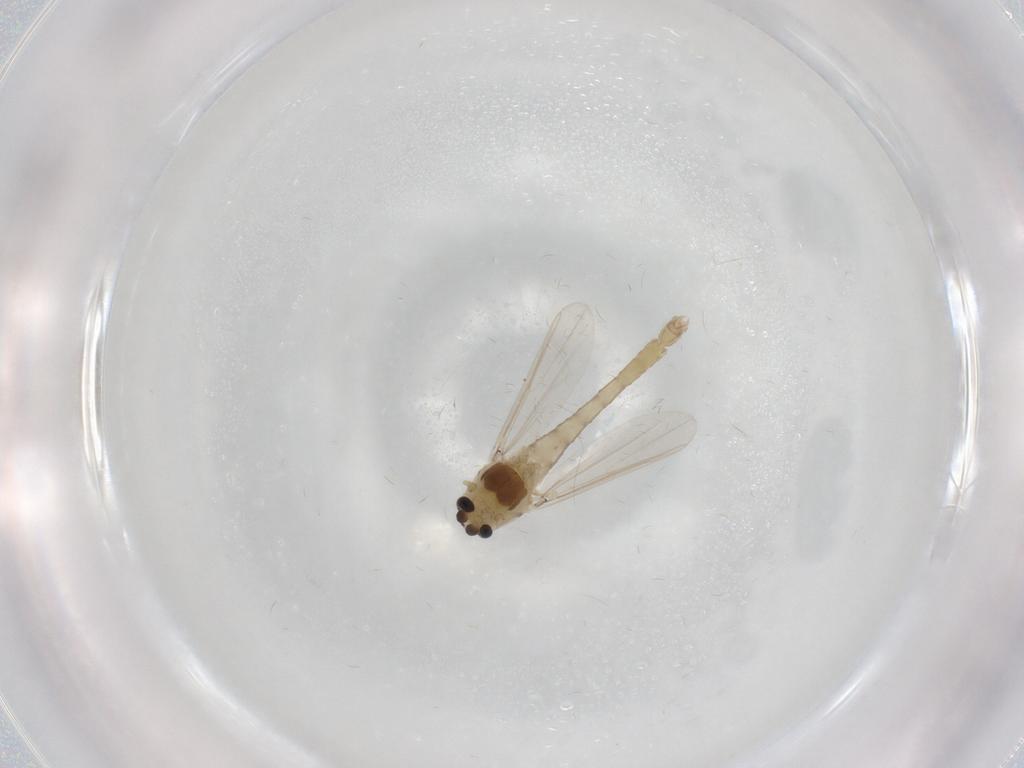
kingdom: Animalia
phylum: Arthropoda
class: Insecta
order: Diptera
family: Chironomidae
